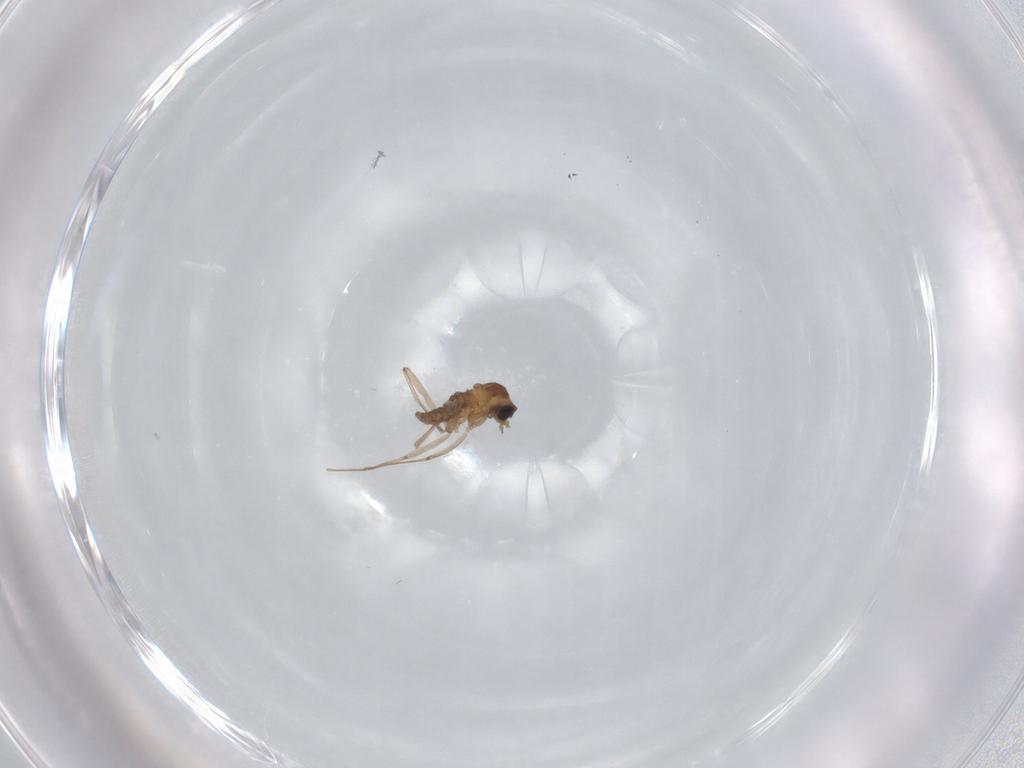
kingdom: Animalia
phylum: Arthropoda
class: Insecta
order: Diptera
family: Cecidomyiidae
